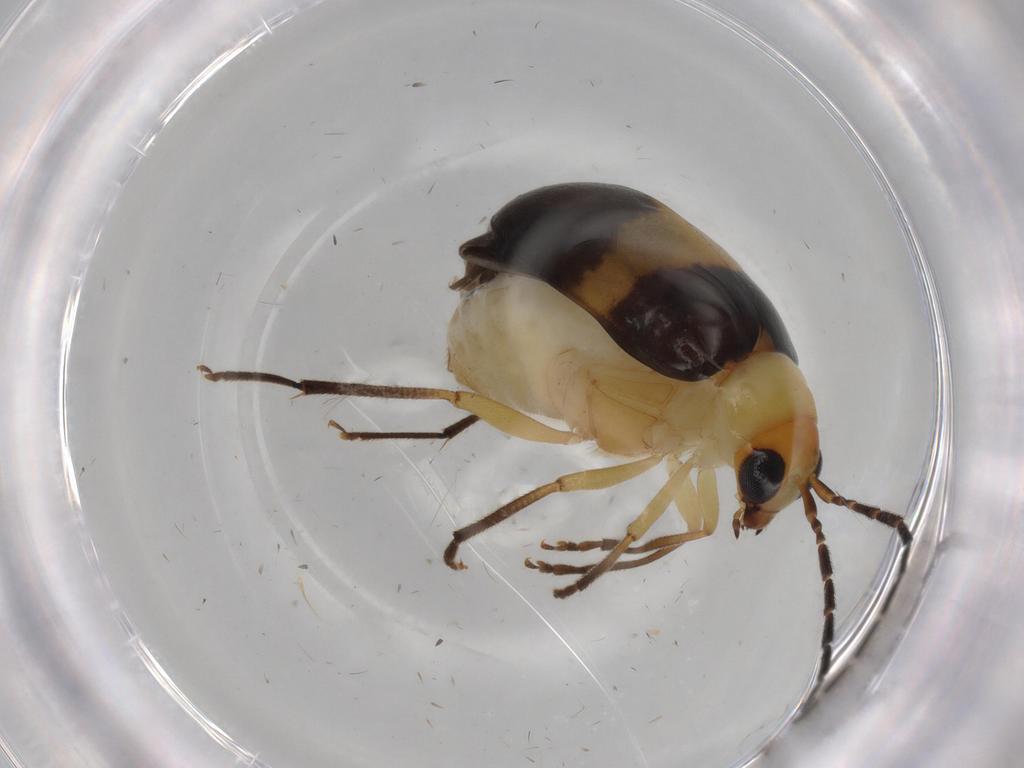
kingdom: Animalia
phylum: Arthropoda
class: Insecta
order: Coleoptera
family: Chrysomelidae
